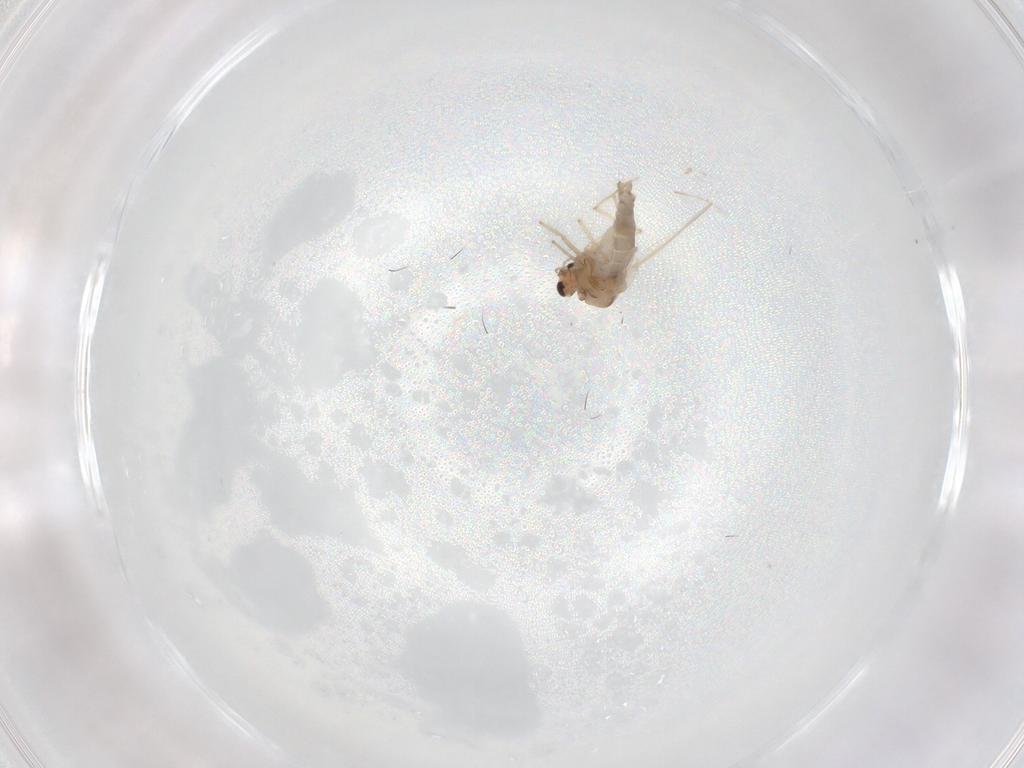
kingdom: Animalia
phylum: Arthropoda
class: Insecta
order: Diptera
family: Chironomidae
